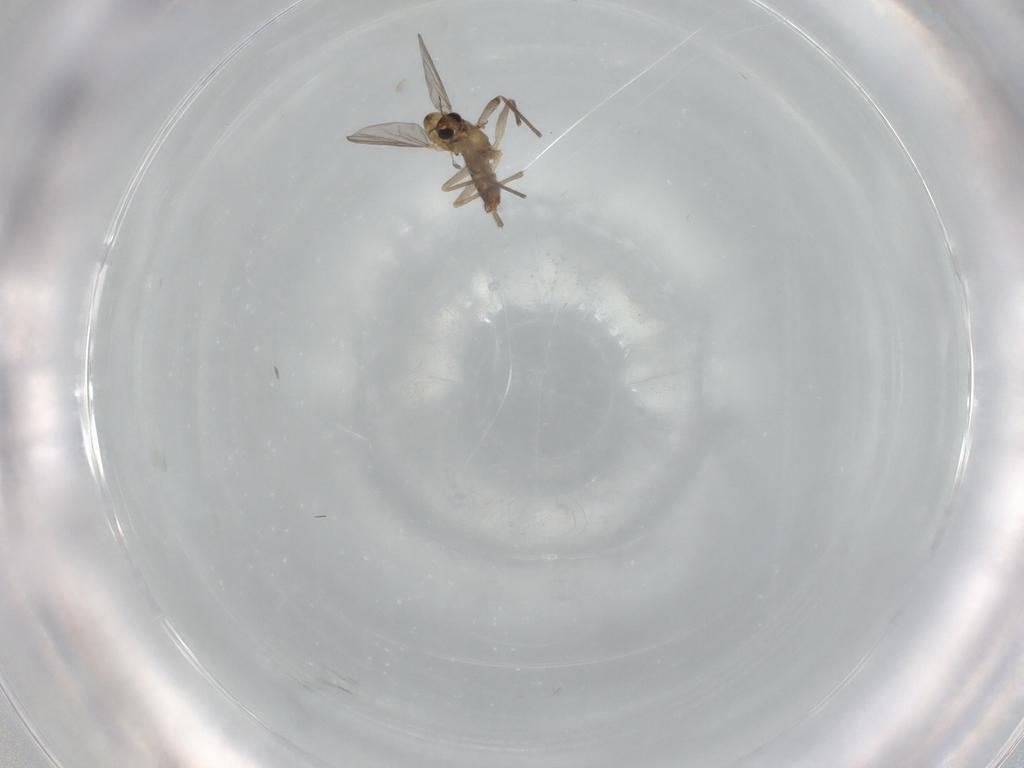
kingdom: Animalia
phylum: Arthropoda
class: Insecta
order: Diptera
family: Chironomidae
